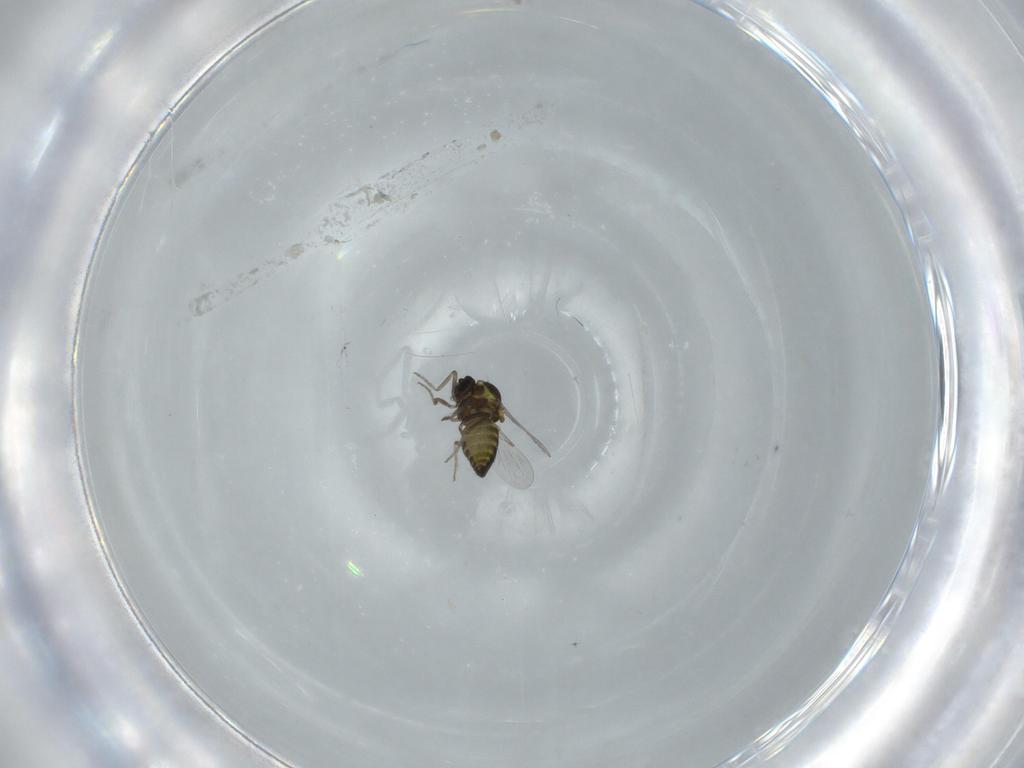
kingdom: Animalia
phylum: Arthropoda
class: Insecta
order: Diptera
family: Ceratopogonidae
